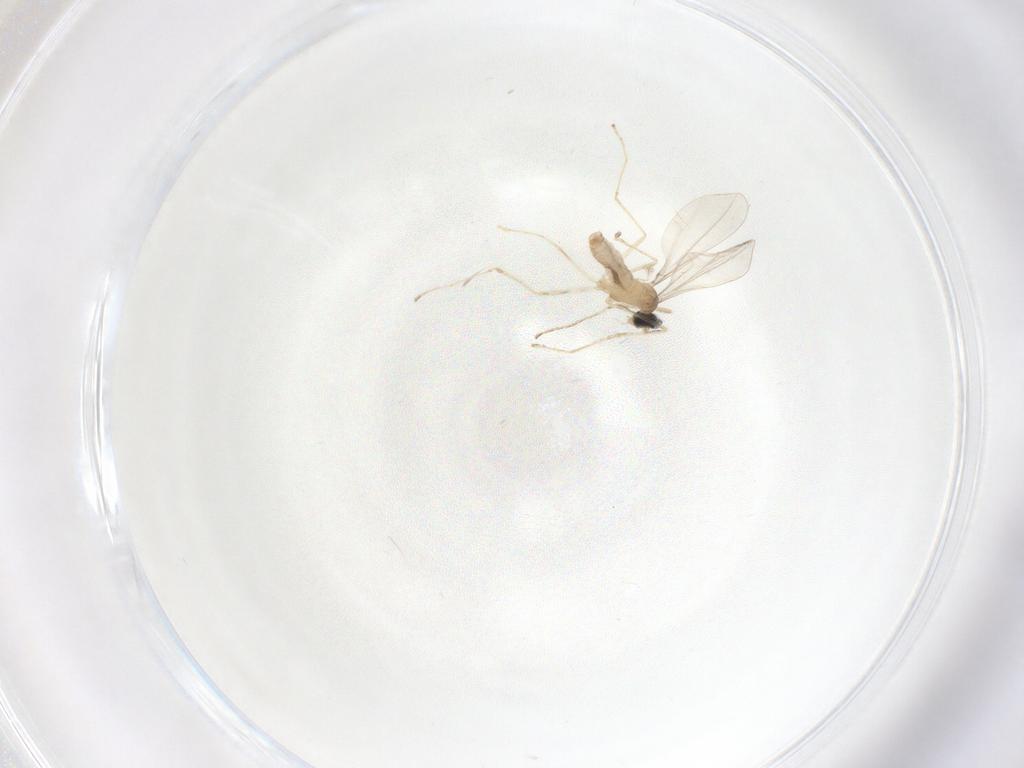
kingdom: Animalia
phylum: Arthropoda
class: Insecta
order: Diptera
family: Cecidomyiidae
